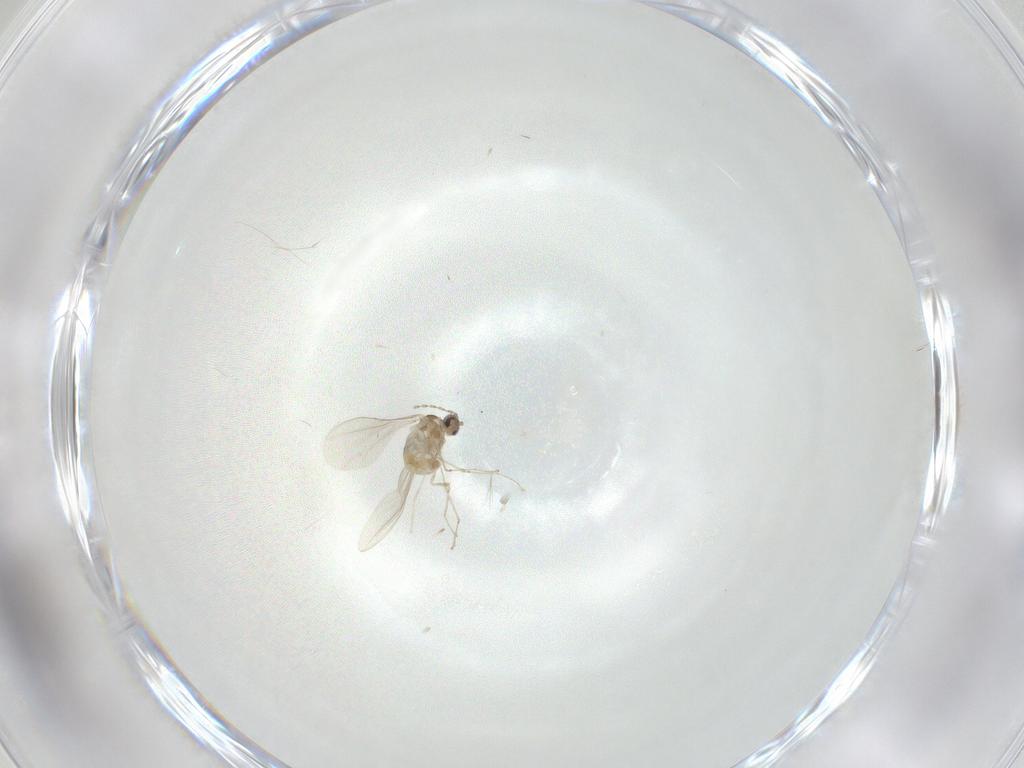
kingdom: Animalia
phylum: Arthropoda
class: Insecta
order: Diptera
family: Cecidomyiidae
